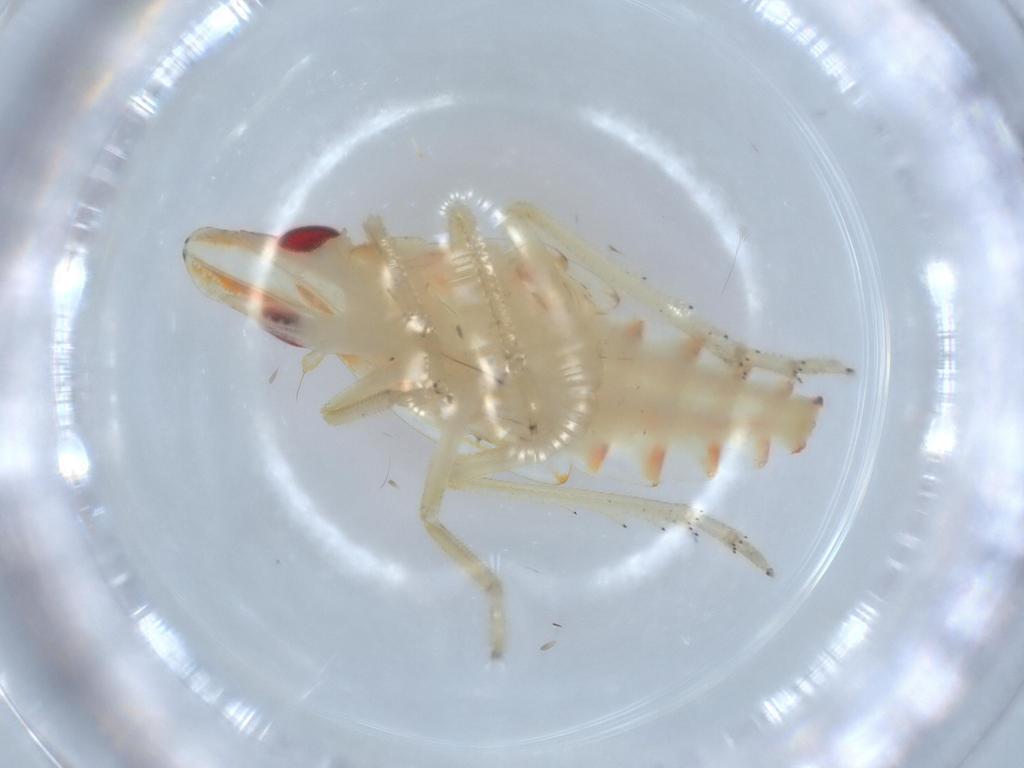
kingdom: Animalia
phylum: Arthropoda
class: Insecta
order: Hemiptera
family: Tropiduchidae
